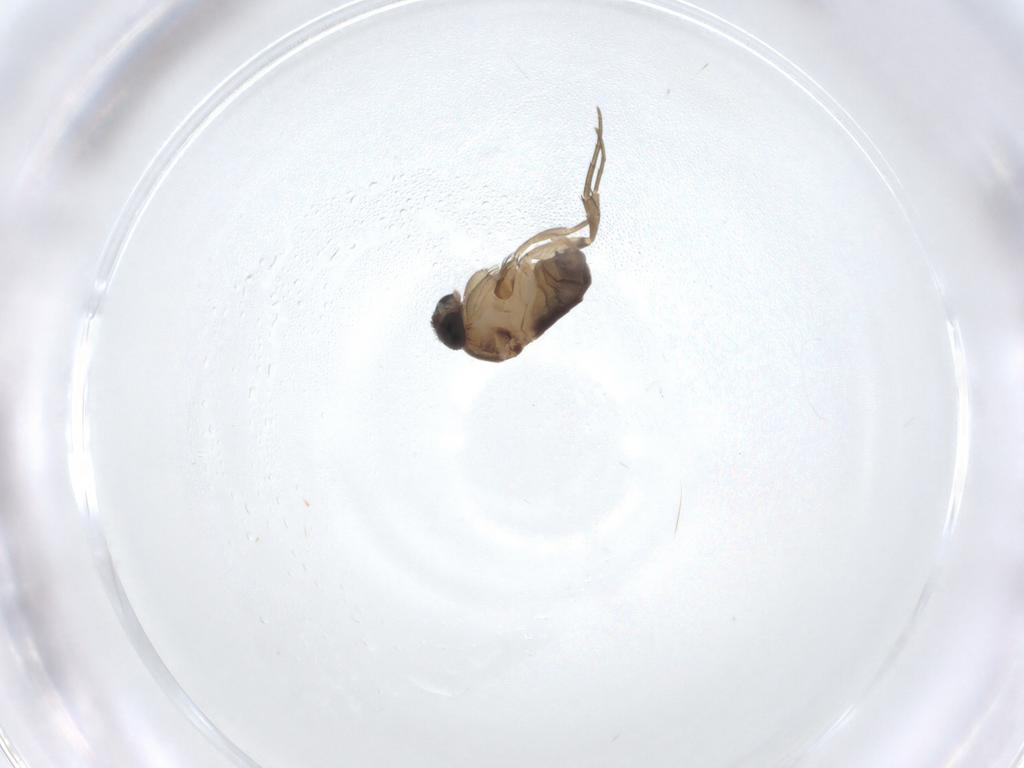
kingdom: Animalia
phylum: Arthropoda
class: Insecta
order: Diptera
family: Phoridae
